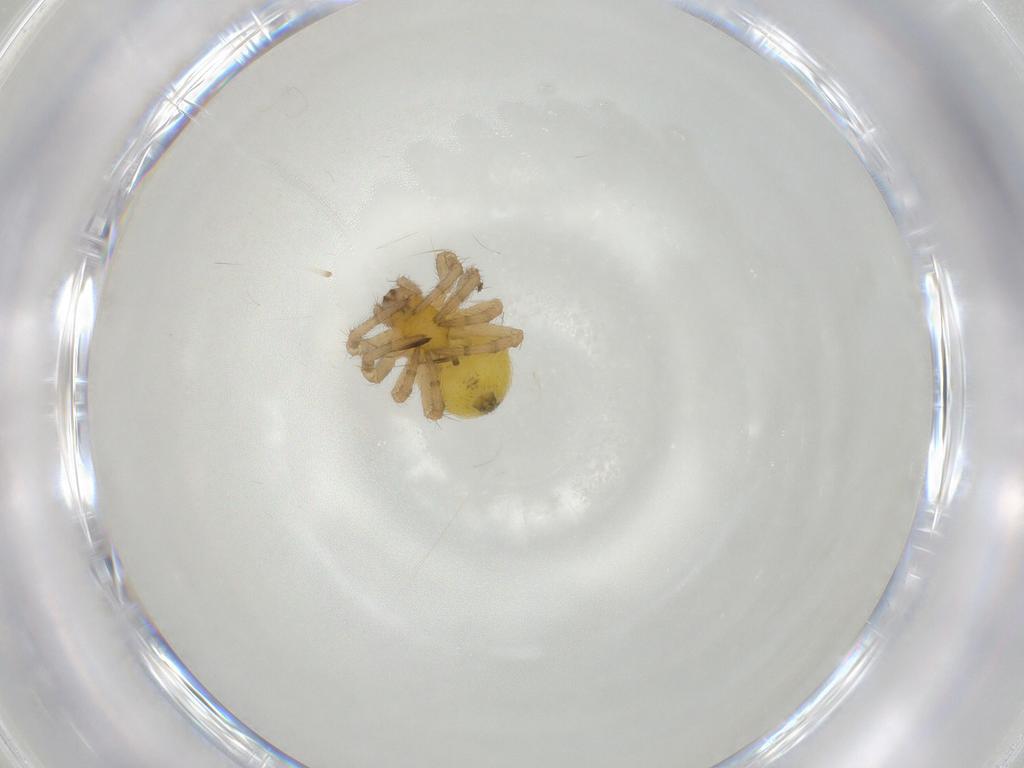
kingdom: Animalia
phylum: Arthropoda
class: Arachnida
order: Araneae
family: Araneidae
